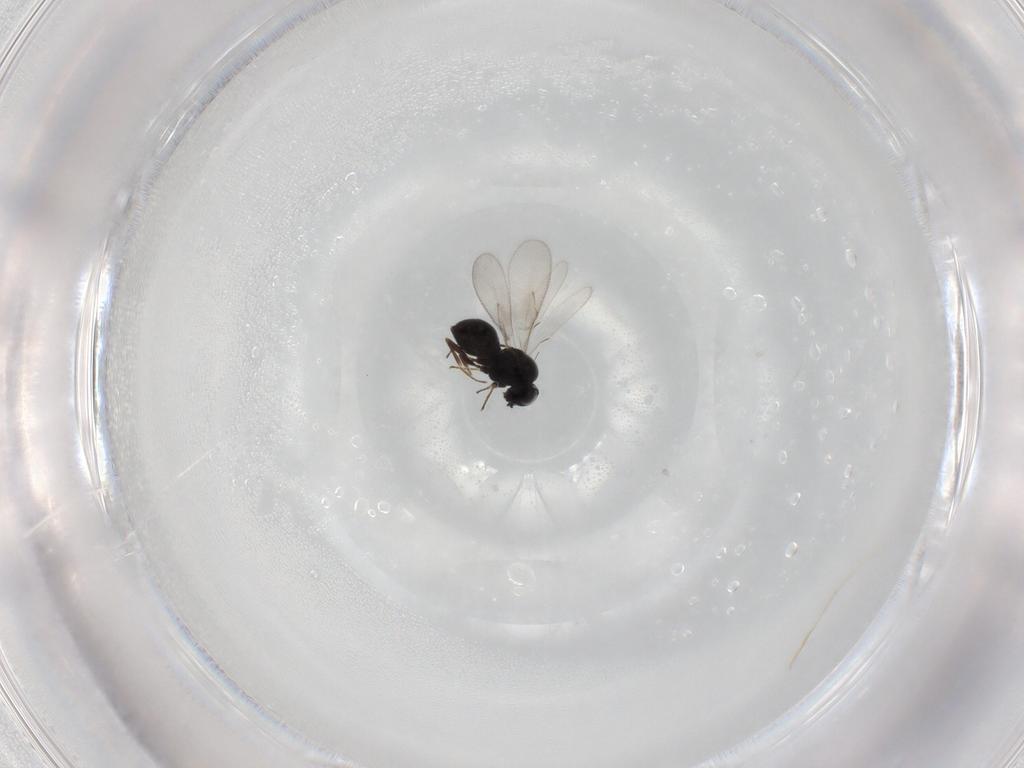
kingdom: Animalia
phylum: Arthropoda
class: Insecta
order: Hymenoptera
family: Scelionidae
